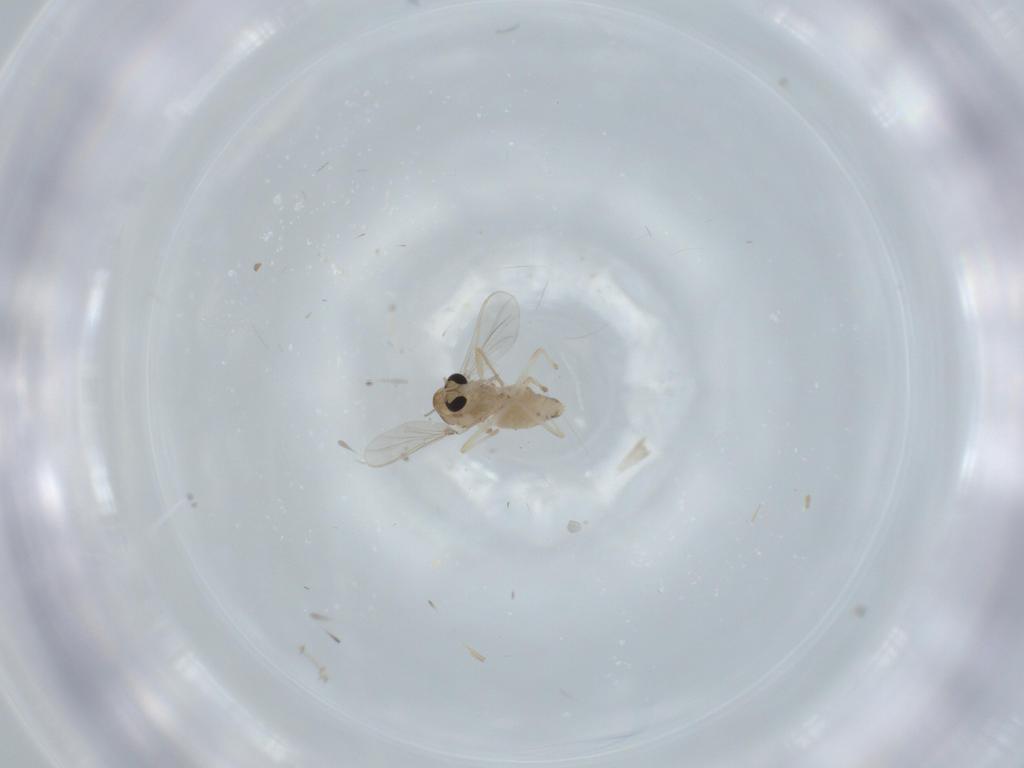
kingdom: Animalia
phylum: Arthropoda
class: Insecta
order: Diptera
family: Chironomidae
